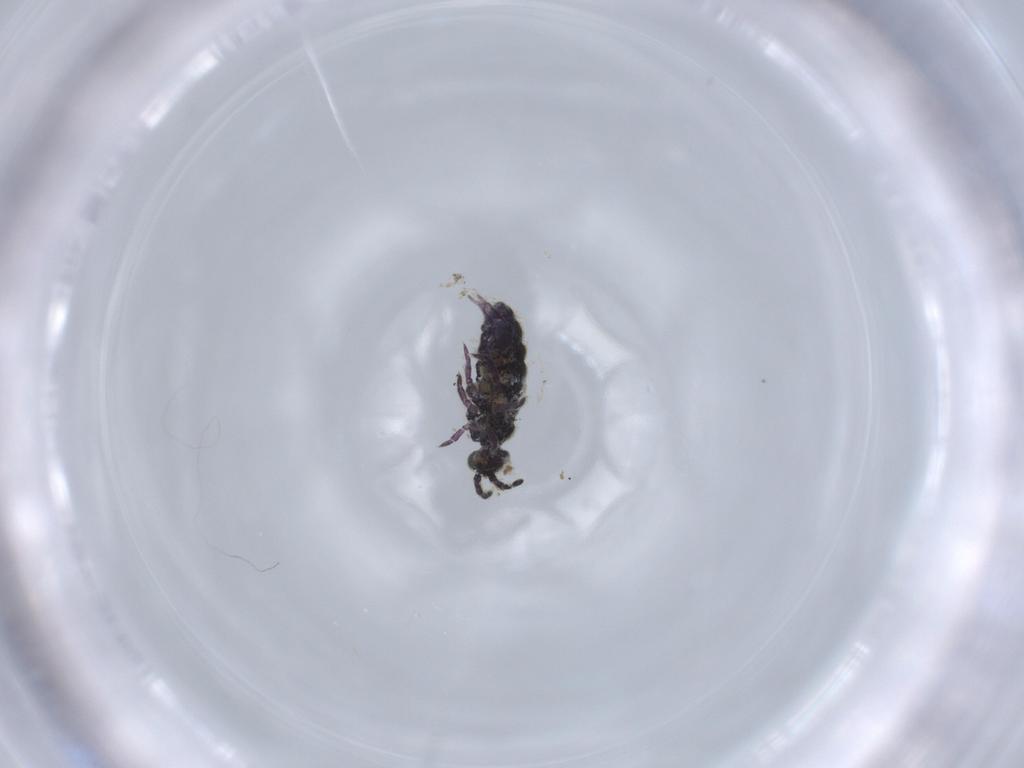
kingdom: Animalia
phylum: Arthropoda
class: Collembola
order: Entomobryomorpha
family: Isotomidae
